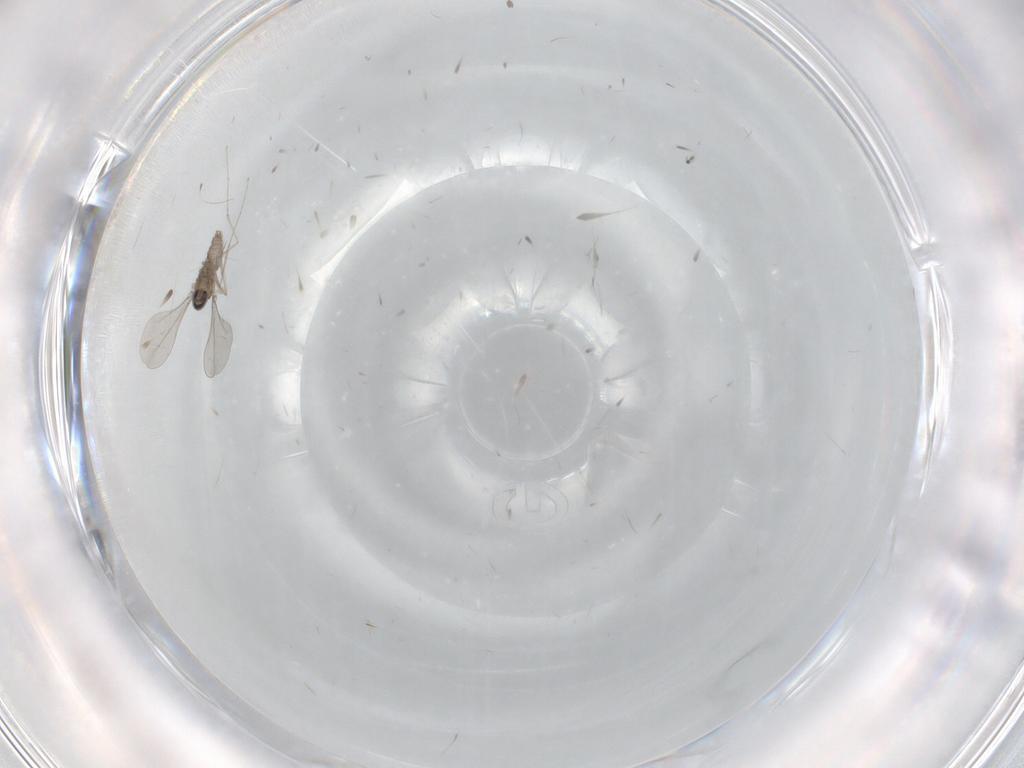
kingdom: Animalia
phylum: Arthropoda
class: Insecta
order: Diptera
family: Ceratopogonidae
